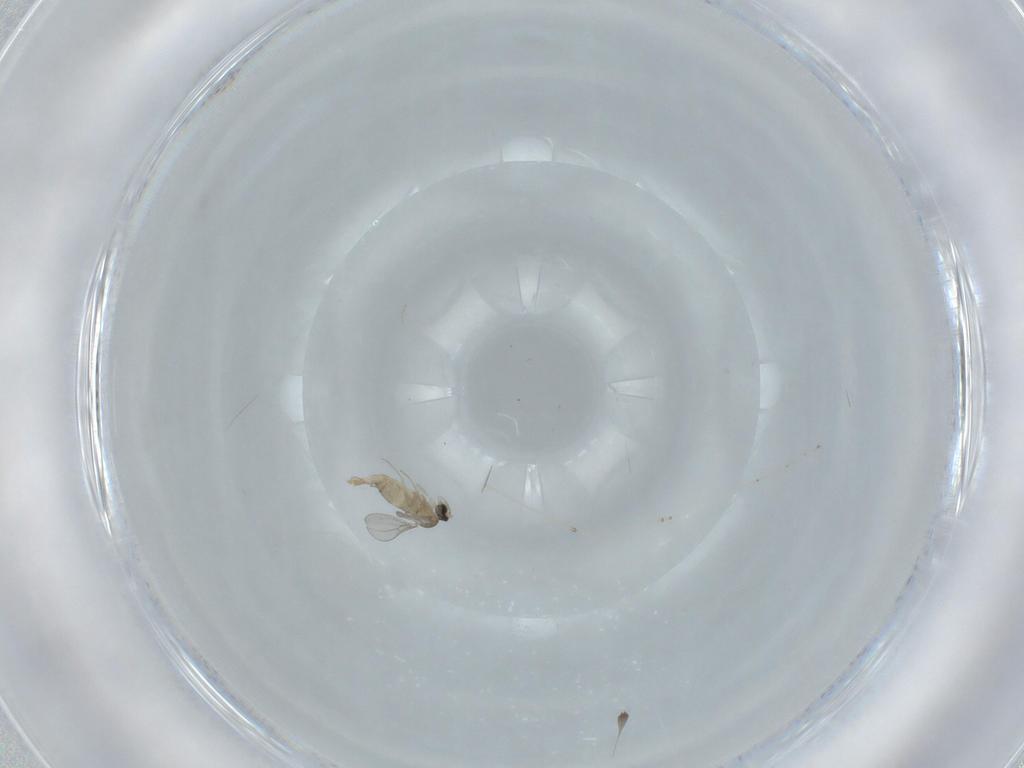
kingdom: Animalia
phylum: Arthropoda
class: Insecta
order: Diptera
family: Cecidomyiidae
